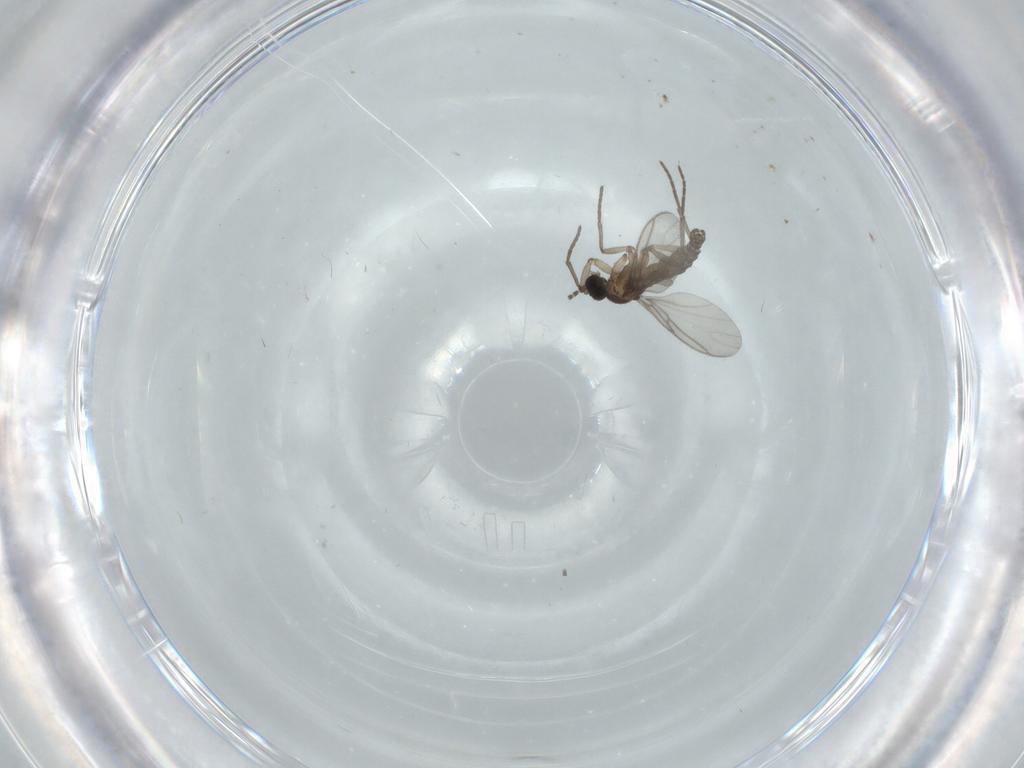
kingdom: Animalia
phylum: Arthropoda
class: Insecta
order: Diptera
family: Sciaridae
